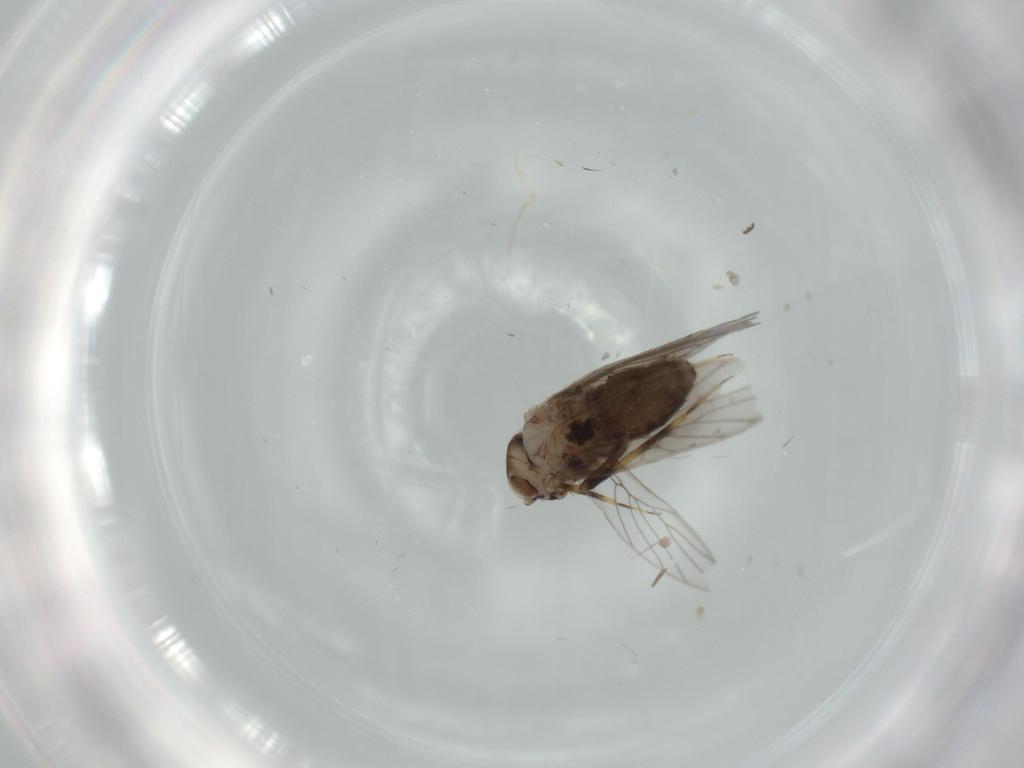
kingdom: Animalia
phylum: Arthropoda
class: Insecta
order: Psocodea
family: Lepidopsocidae
